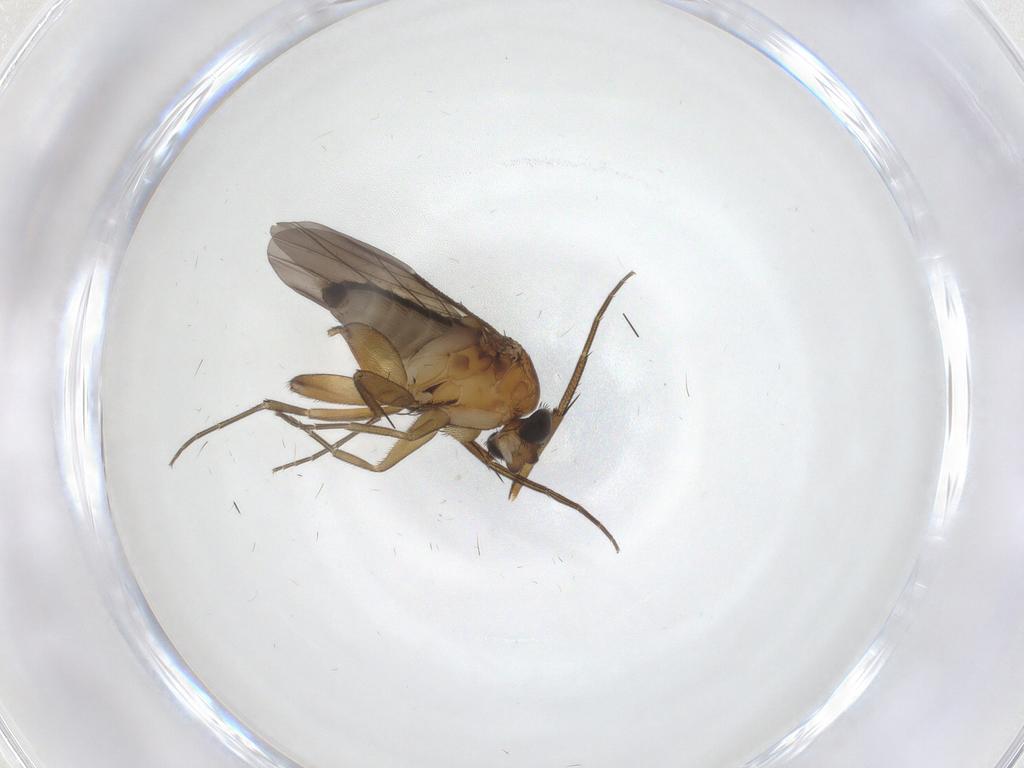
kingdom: Animalia
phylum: Arthropoda
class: Insecta
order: Diptera
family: Phoridae
